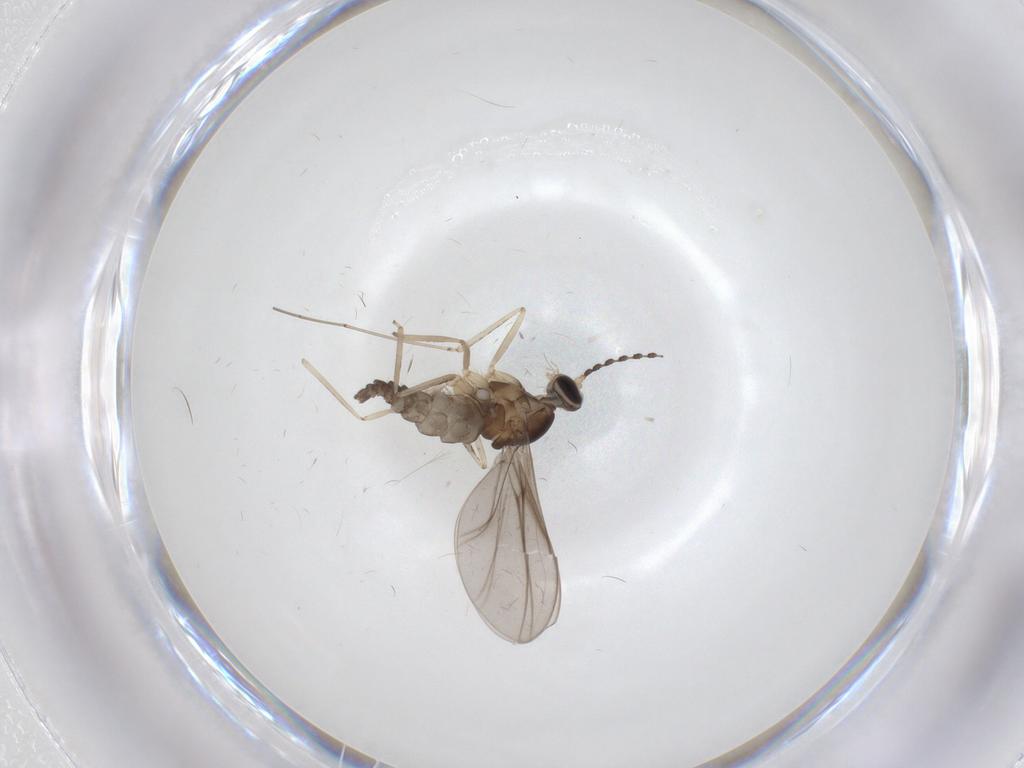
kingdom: Animalia
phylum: Arthropoda
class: Insecta
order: Diptera
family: Cecidomyiidae
